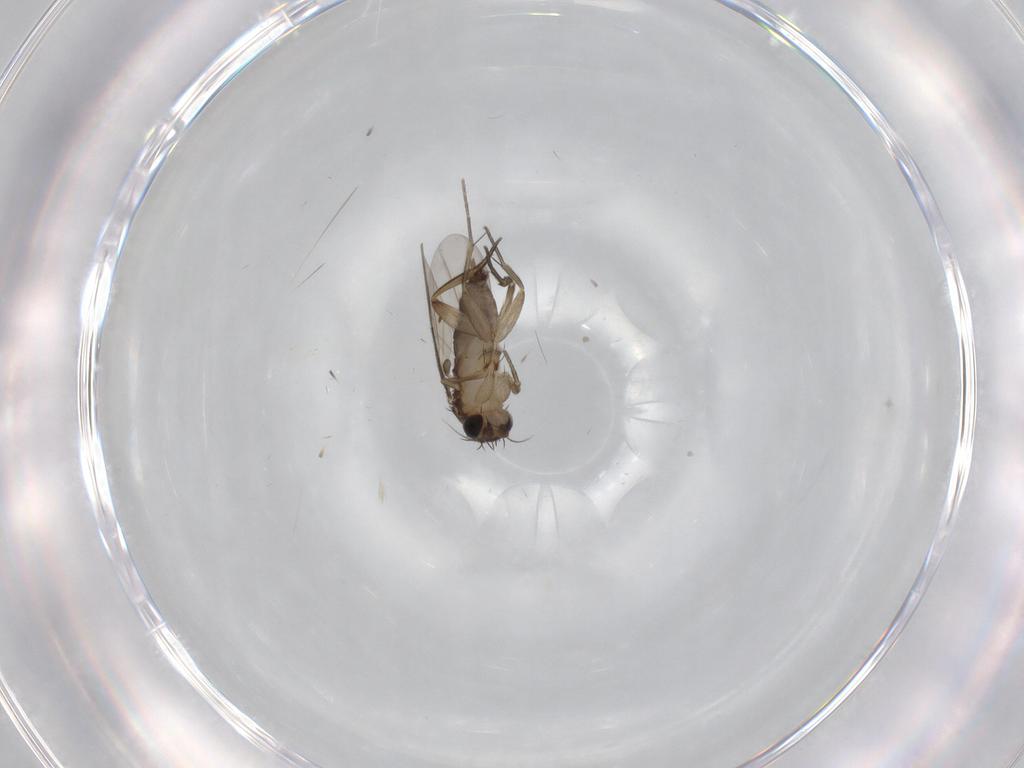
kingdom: Animalia
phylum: Arthropoda
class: Insecta
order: Diptera
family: Phoridae
